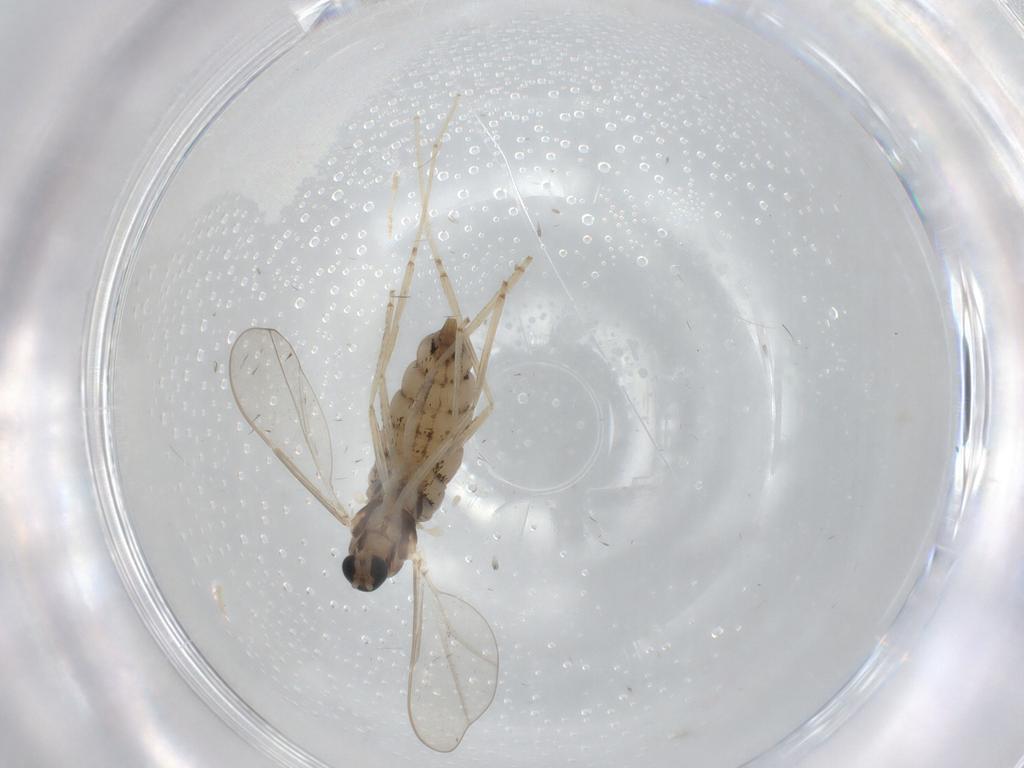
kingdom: Animalia
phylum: Arthropoda
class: Insecta
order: Diptera
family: Cecidomyiidae
